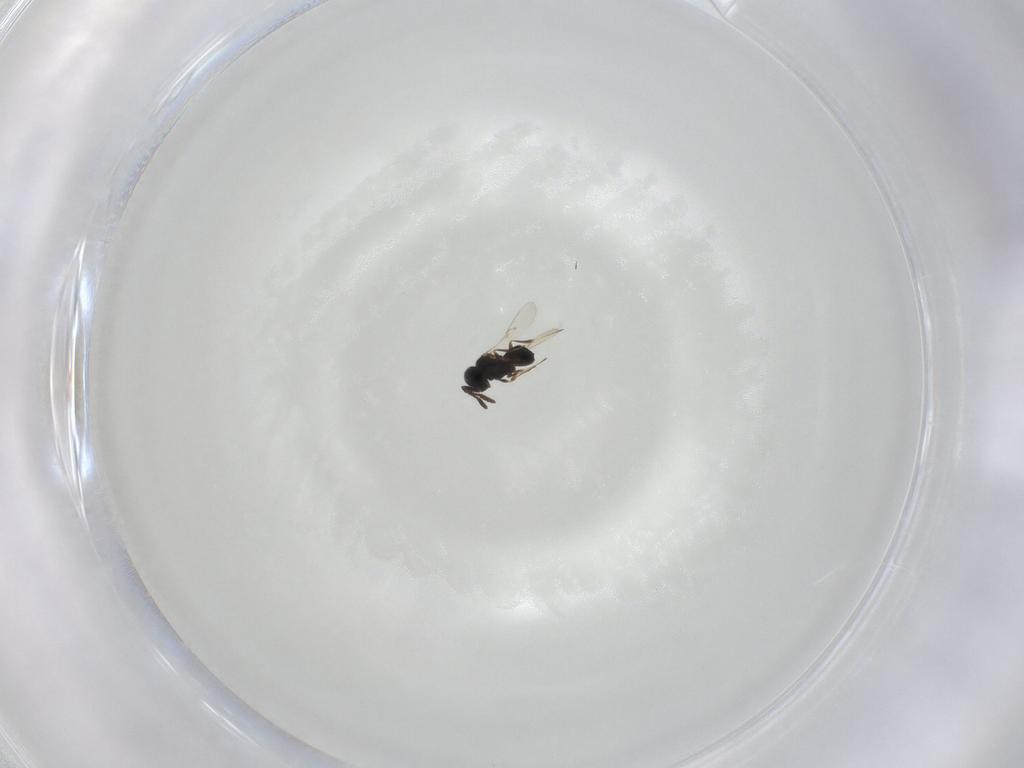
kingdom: Animalia
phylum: Arthropoda
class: Insecta
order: Hymenoptera
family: Scelionidae
